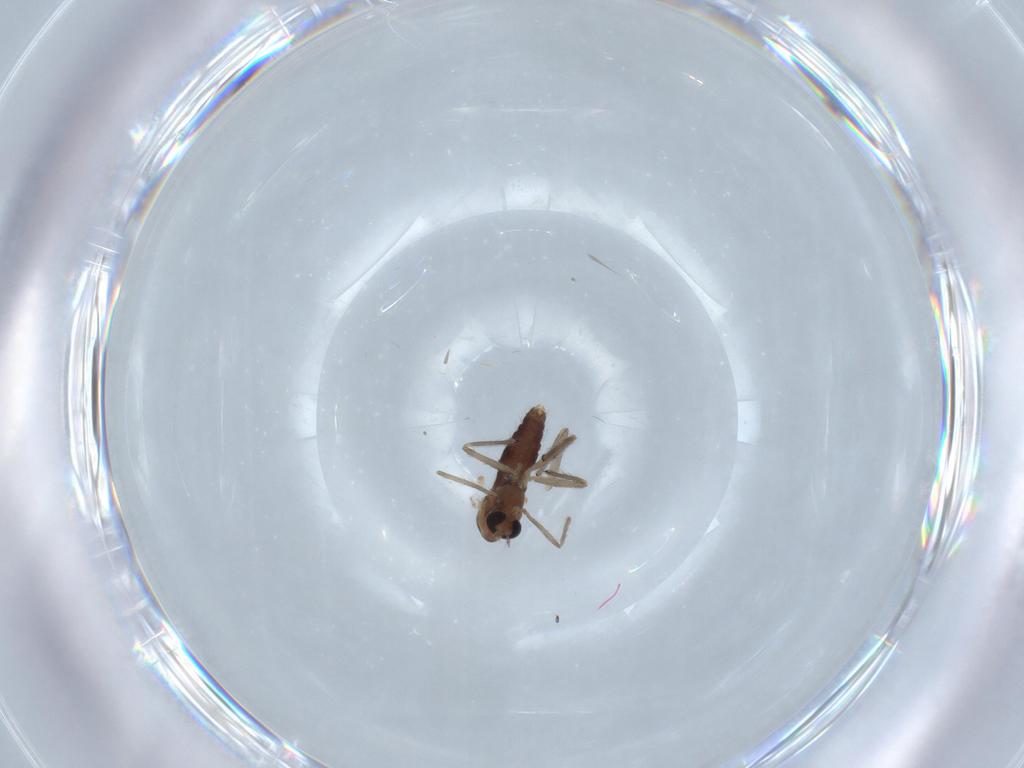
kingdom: Animalia
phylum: Arthropoda
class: Insecta
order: Diptera
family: Chironomidae
